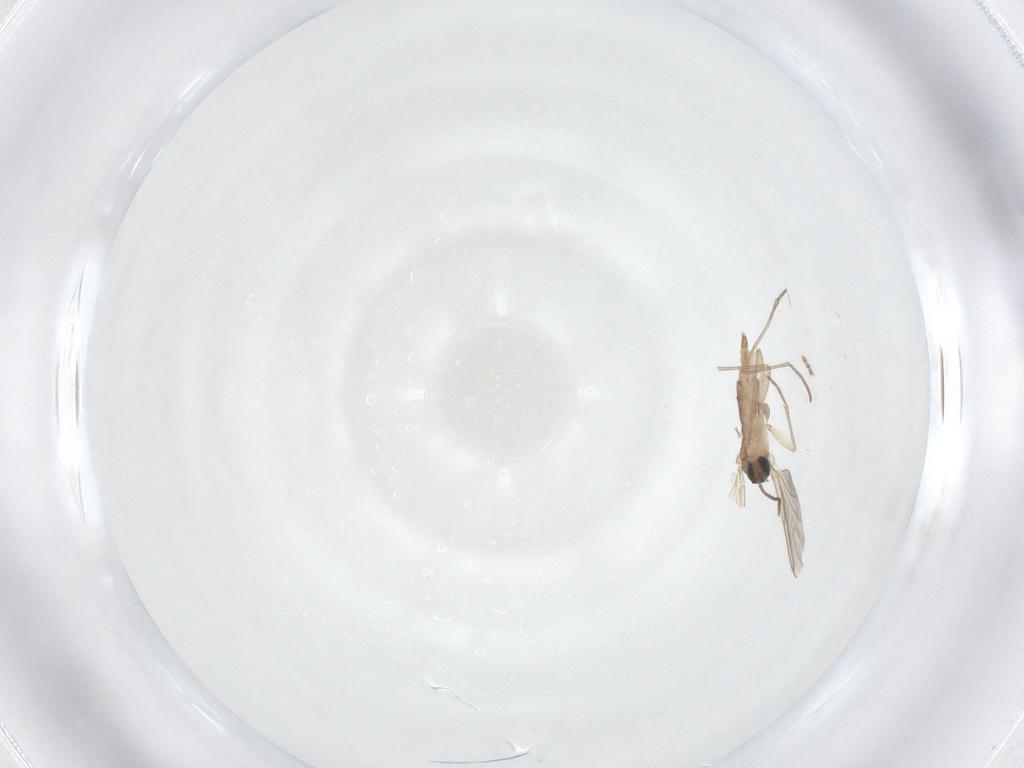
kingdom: Animalia
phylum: Arthropoda
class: Insecta
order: Diptera
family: Ceratopogonidae
